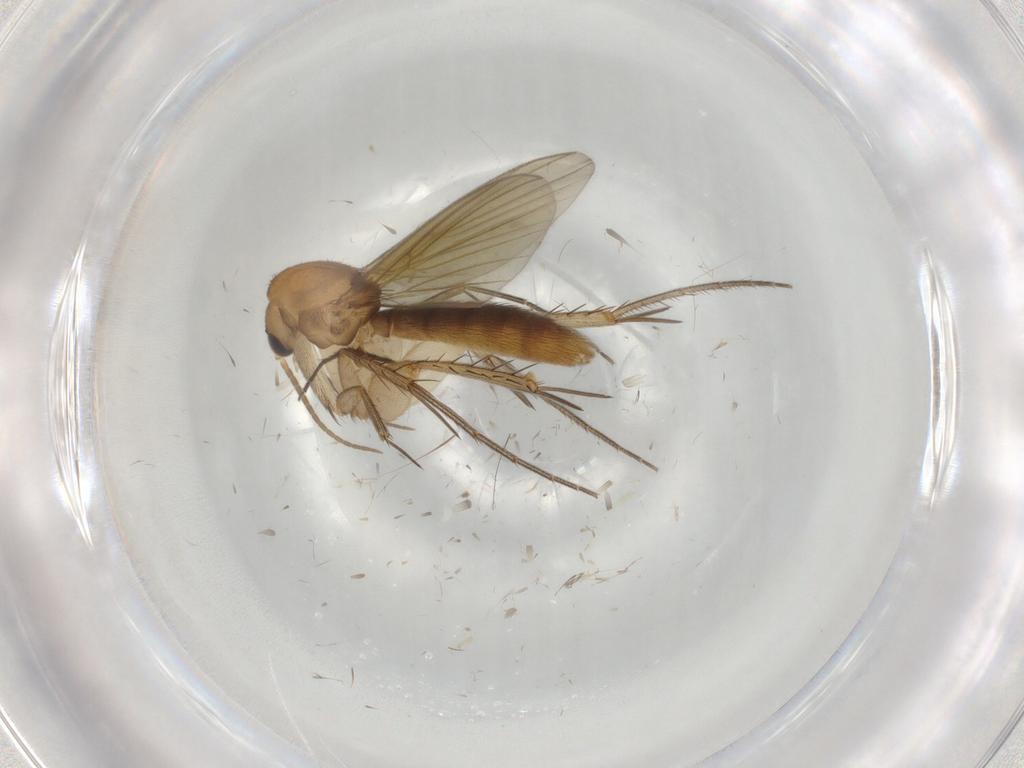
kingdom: Animalia
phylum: Arthropoda
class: Insecta
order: Diptera
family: Mycetophilidae
